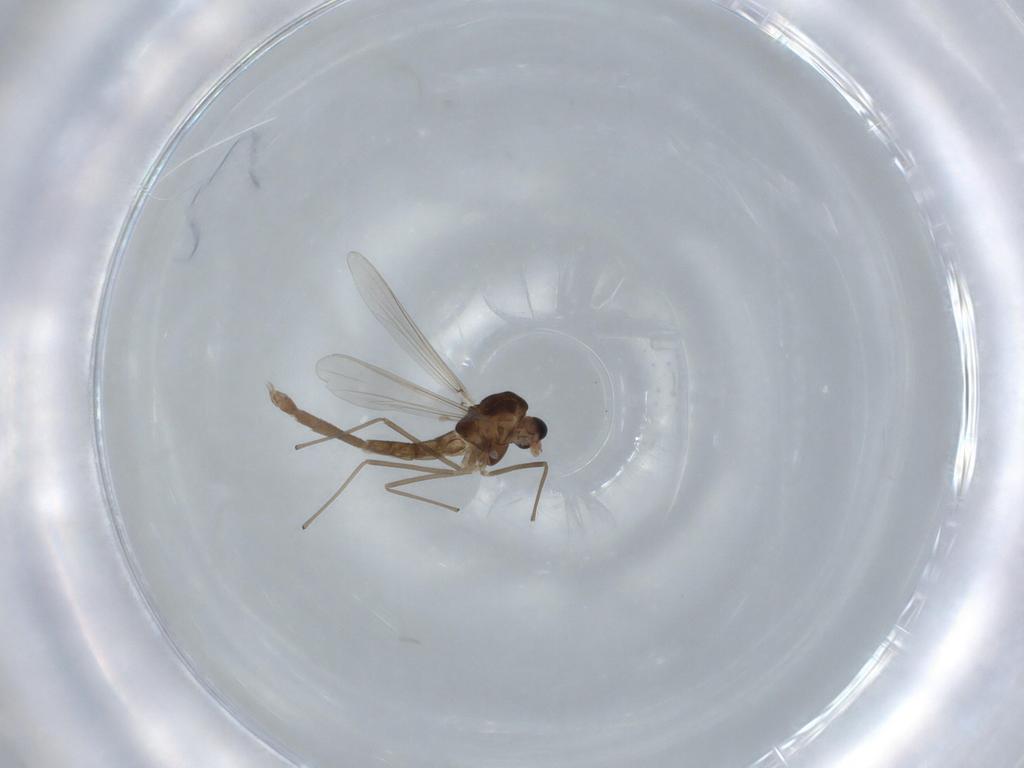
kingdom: Animalia
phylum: Arthropoda
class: Insecta
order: Diptera
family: Chironomidae
